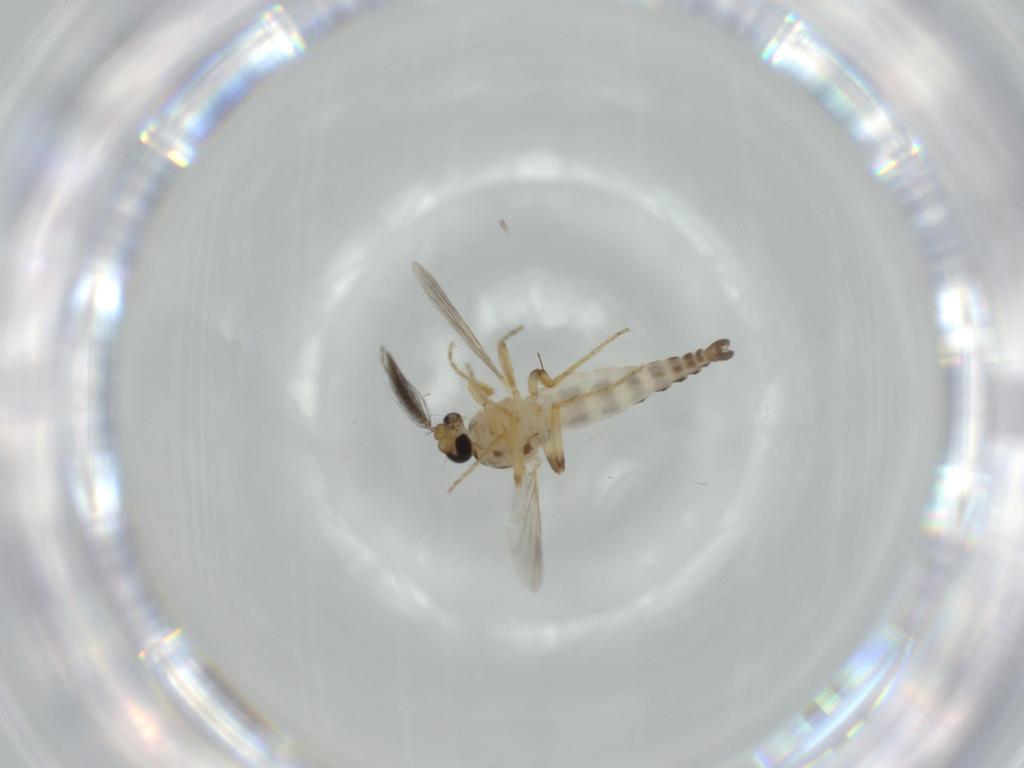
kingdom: Animalia
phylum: Arthropoda
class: Insecta
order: Diptera
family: Ceratopogonidae
